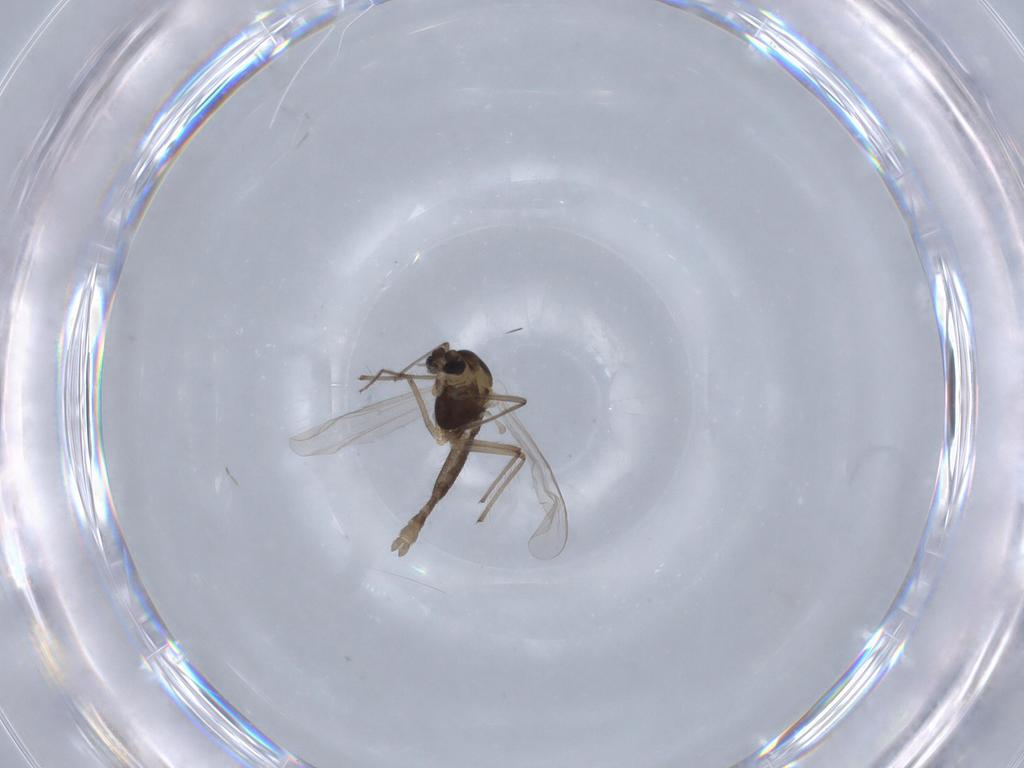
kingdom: Animalia
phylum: Arthropoda
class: Insecta
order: Diptera
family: Chironomidae
